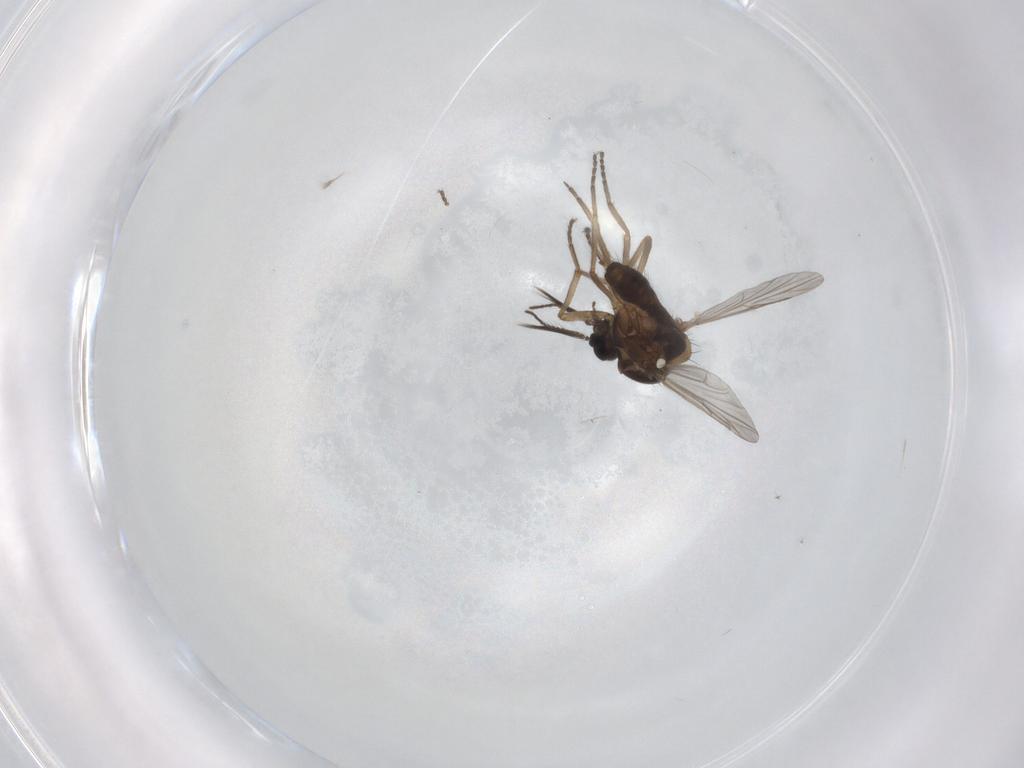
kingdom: Animalia
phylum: Arthropoda
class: Insecta
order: Diptera
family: Ceratopogonidae
